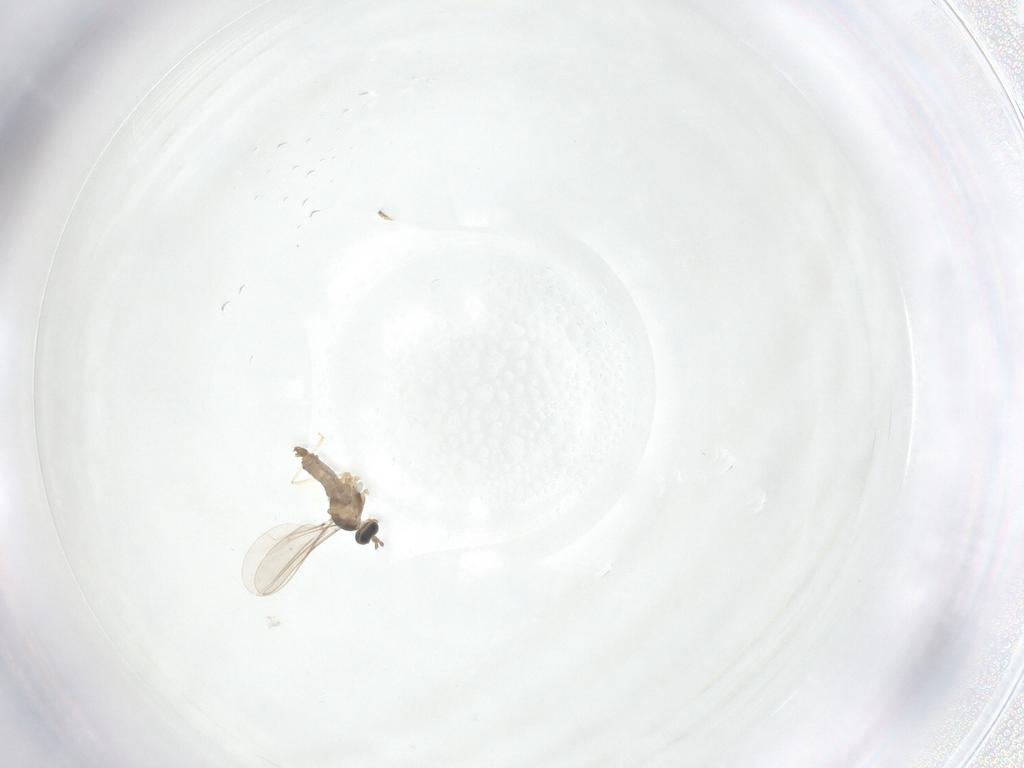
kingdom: Animalia
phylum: Arthropoda
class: Insecta
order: Diptera
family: Cecidomyiidae
